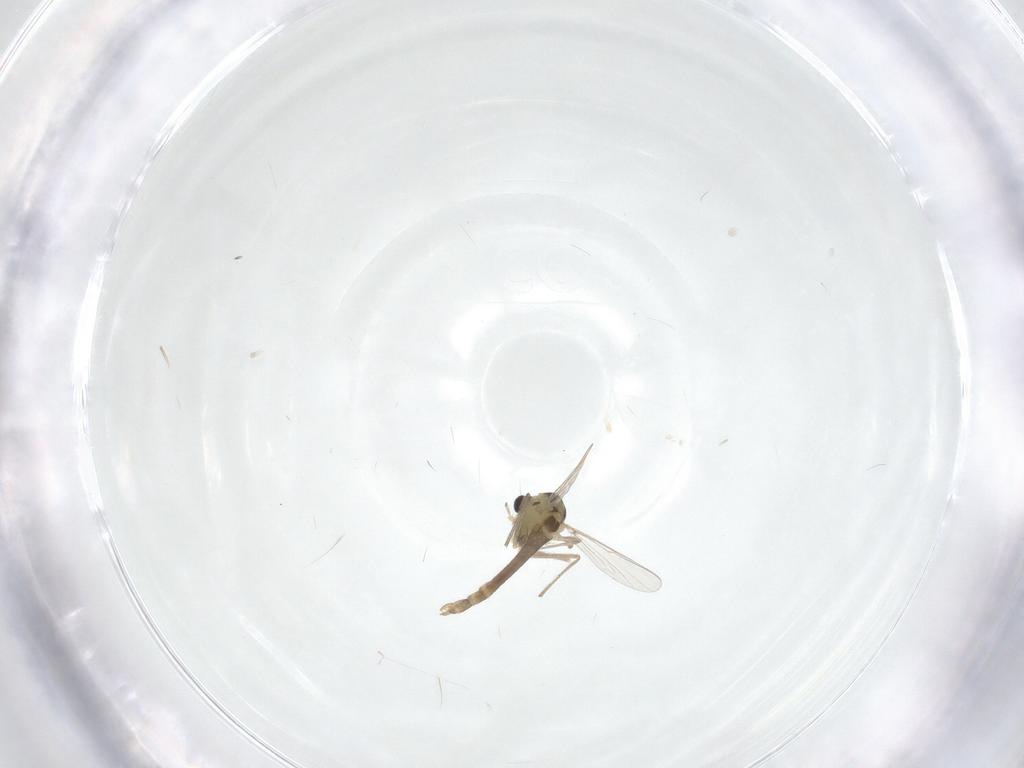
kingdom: Animalia
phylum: Arthropoda
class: Insecta
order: Diptera
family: Chironomidae
